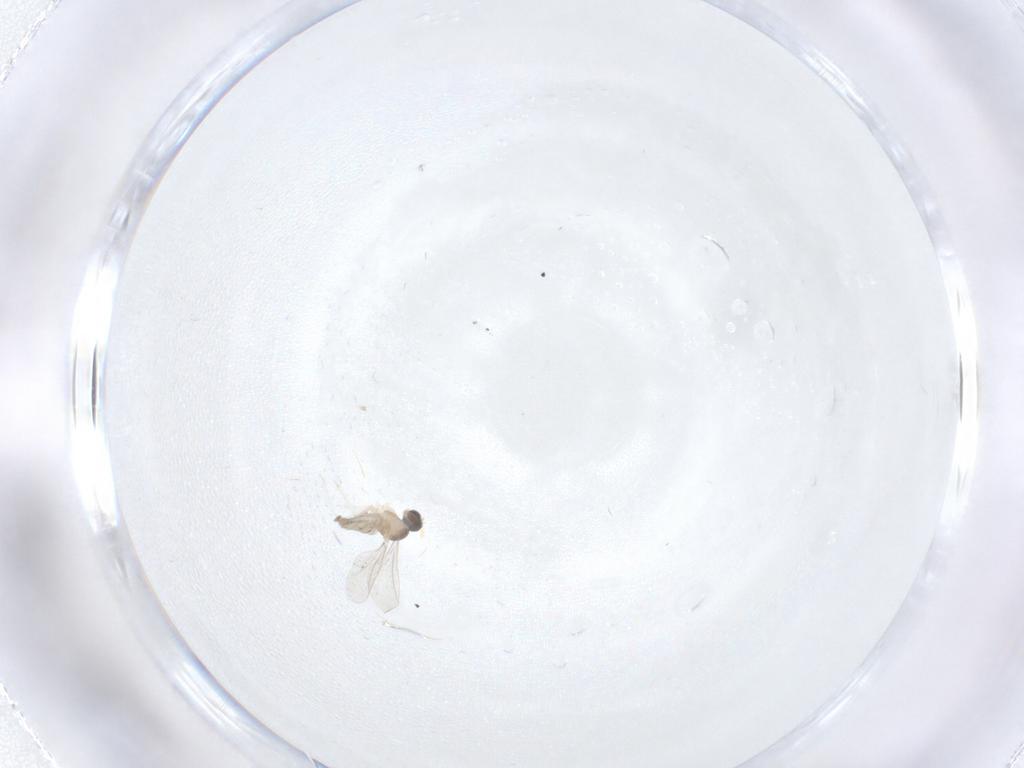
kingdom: Animalia
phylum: Arthropoda
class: Insecta
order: Diptera
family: Cecidomyiidae
